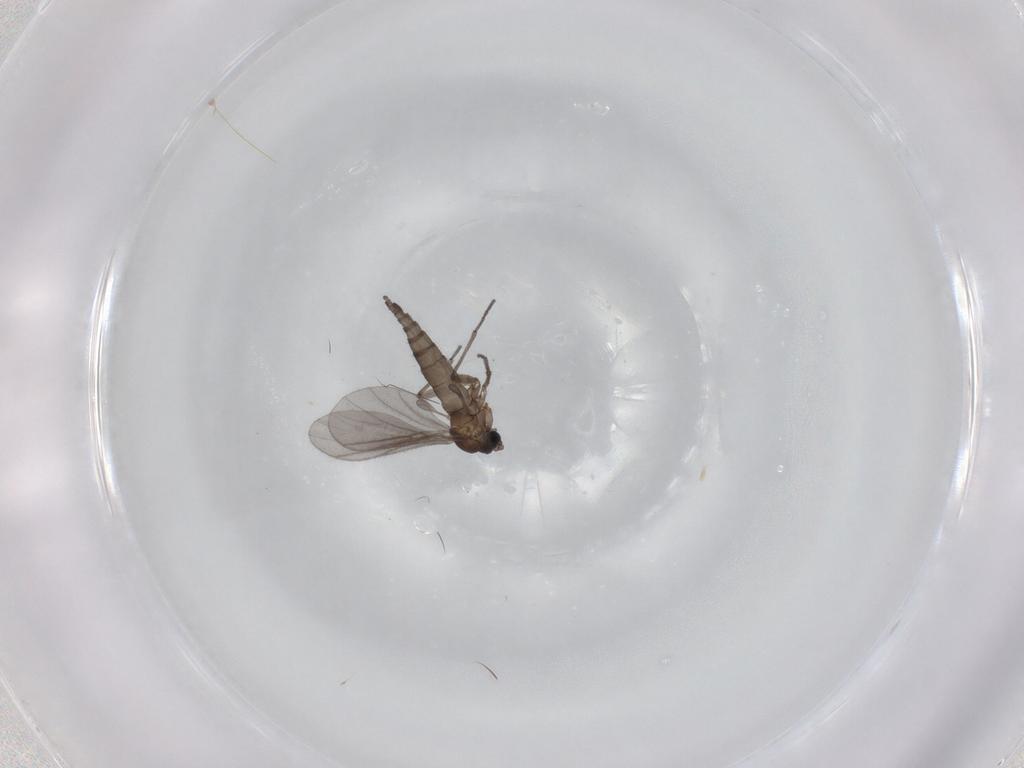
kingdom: Animalia
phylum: Arthropoda
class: Insecta
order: Diptera
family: Sciaridae
